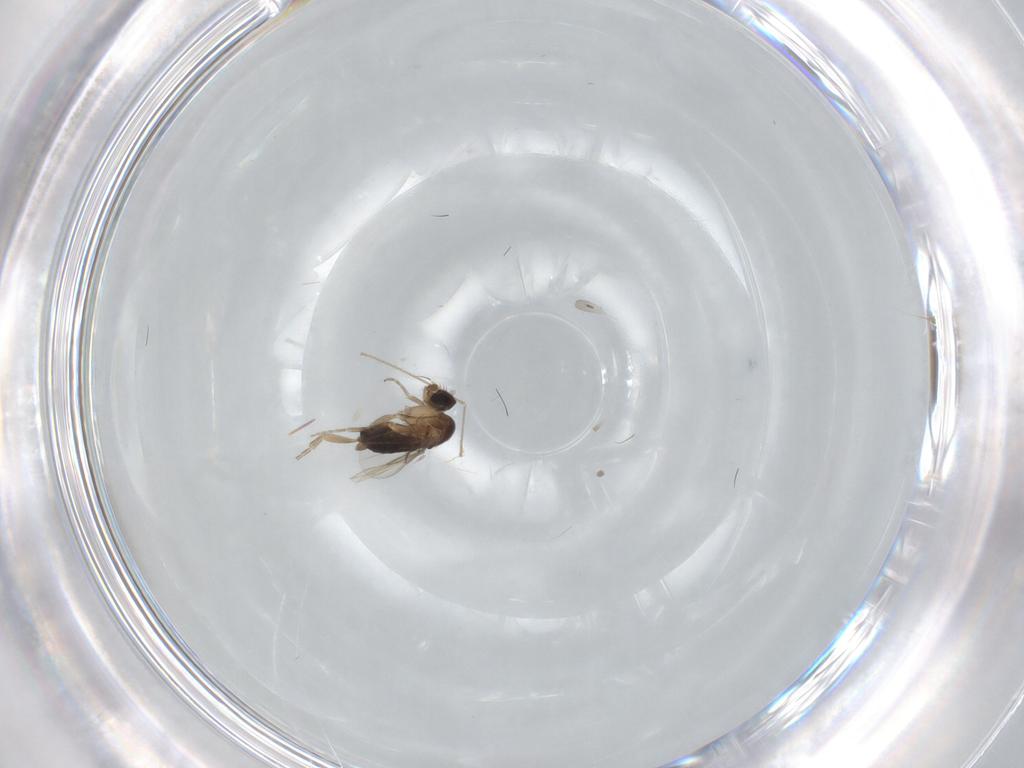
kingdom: Animalia
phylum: Arthropoda
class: Insecta
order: Diptera
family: Phoridae
